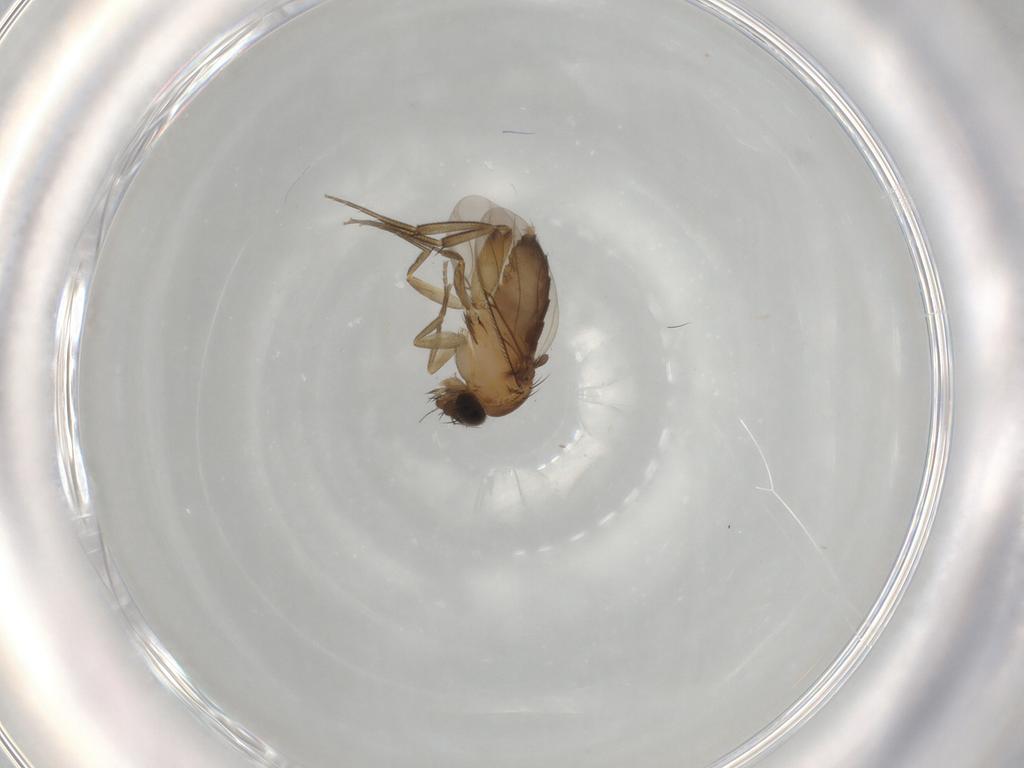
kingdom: Animalia
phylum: Arthropoda
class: Insecta
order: Diptera
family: Phoridae
